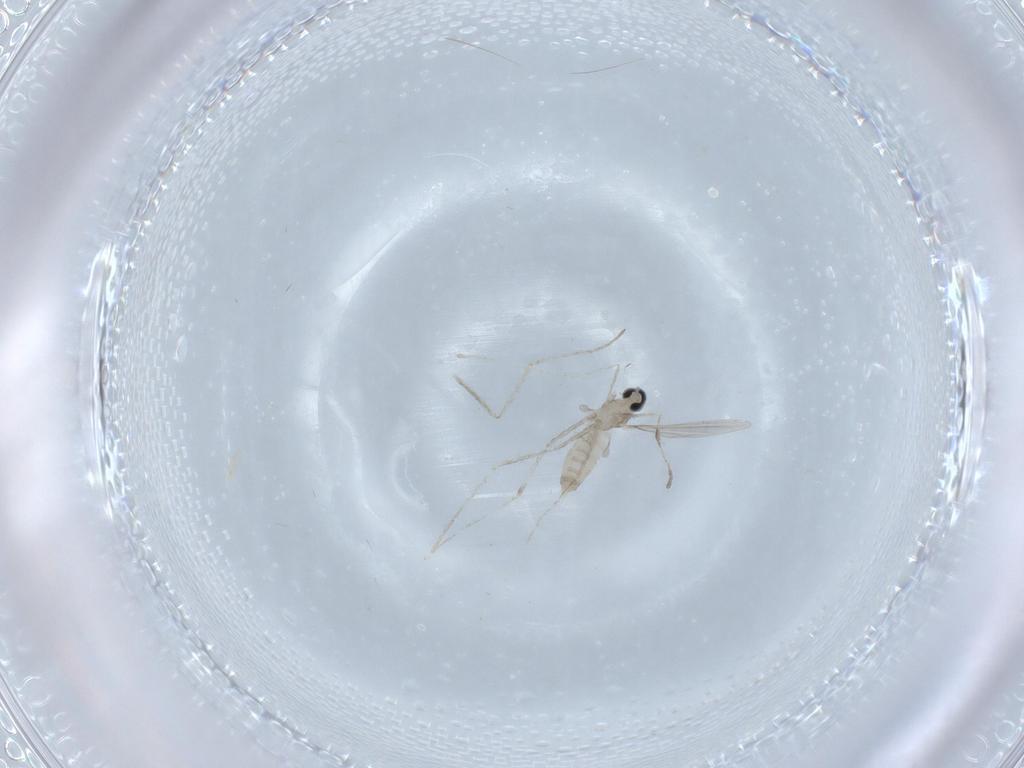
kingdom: Animalia
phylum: Arthropoda
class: Insecta
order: Diptera
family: Cecidomyiidae
